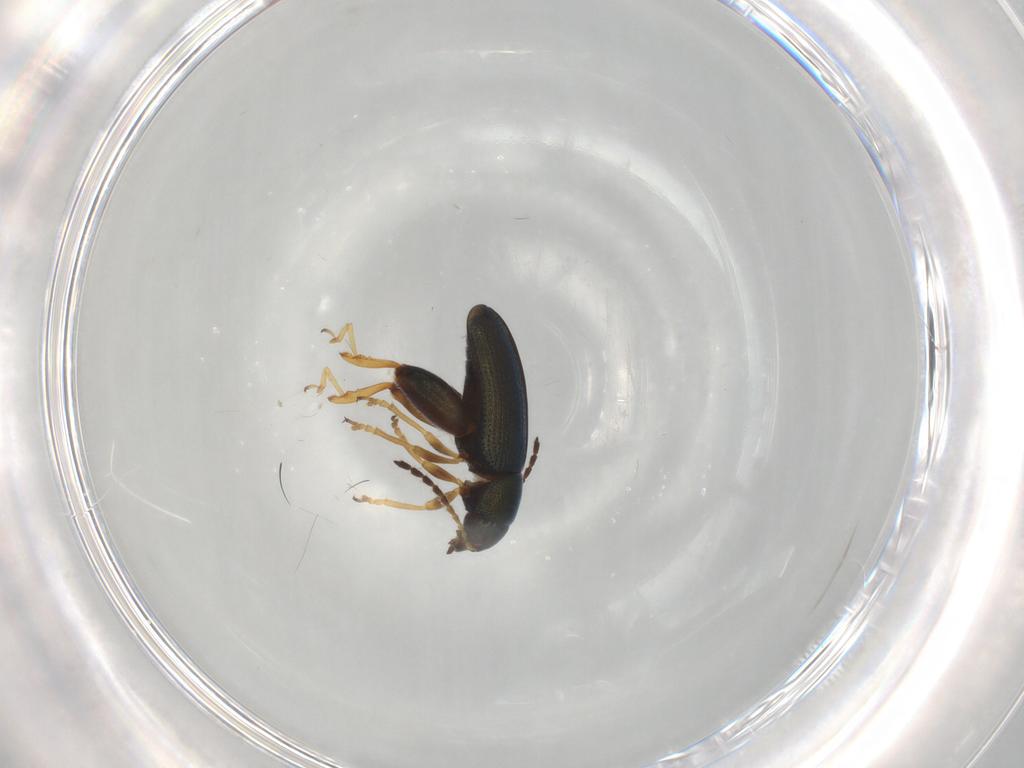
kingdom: Animalia
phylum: Arthropoda
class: Insecta
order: Coleoptera
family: Chrysomelidae
